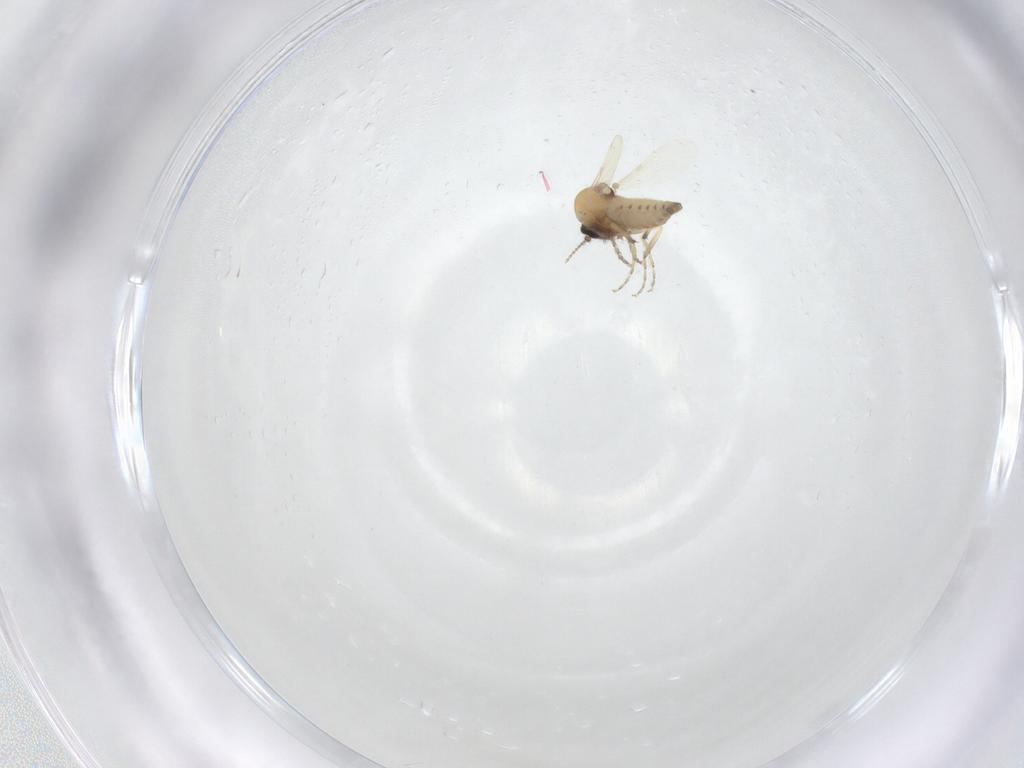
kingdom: Animalia
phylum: Arthropoda
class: Insecta
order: Diptera
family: Ceratopogonidae
